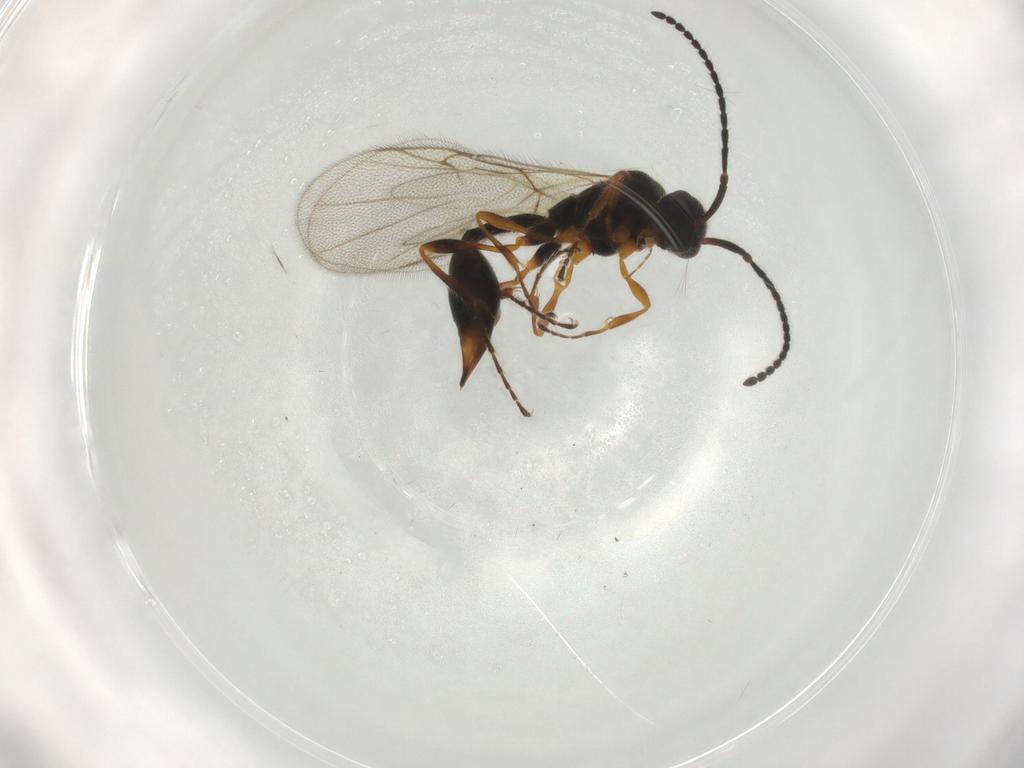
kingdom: Animalia
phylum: Arthropoda
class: Insecta
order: Hymenoptera
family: Diapriidae
